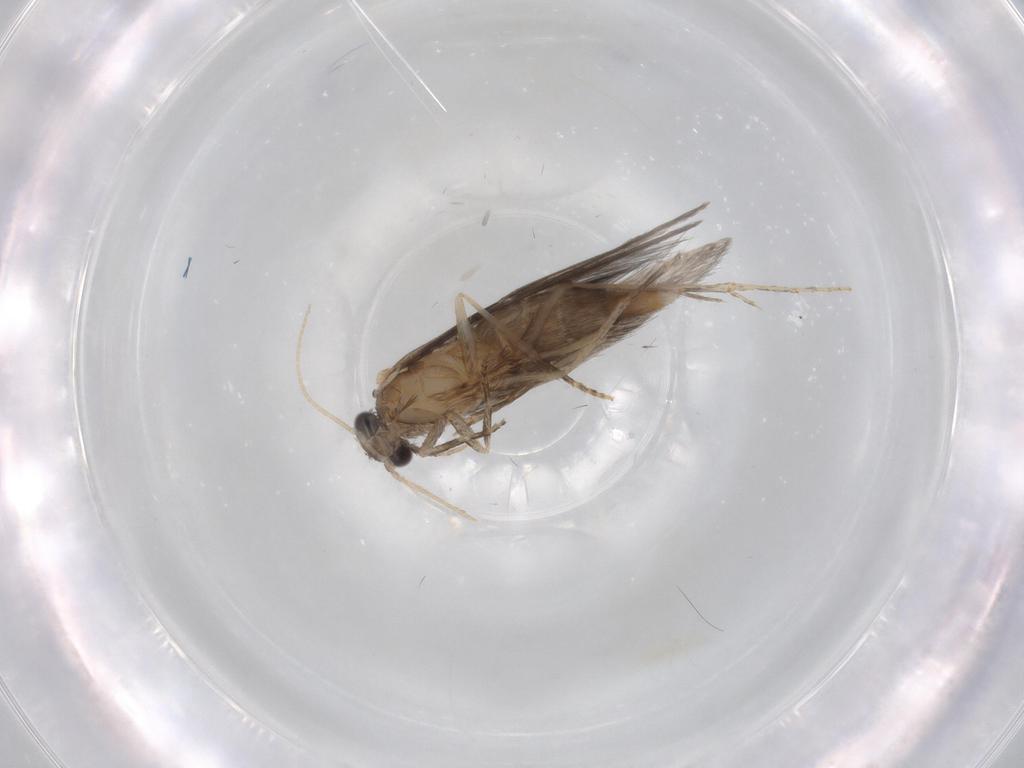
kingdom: Animalia
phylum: Arthropoda
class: Insecta
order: Trichoptera
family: Hydroptilidae
